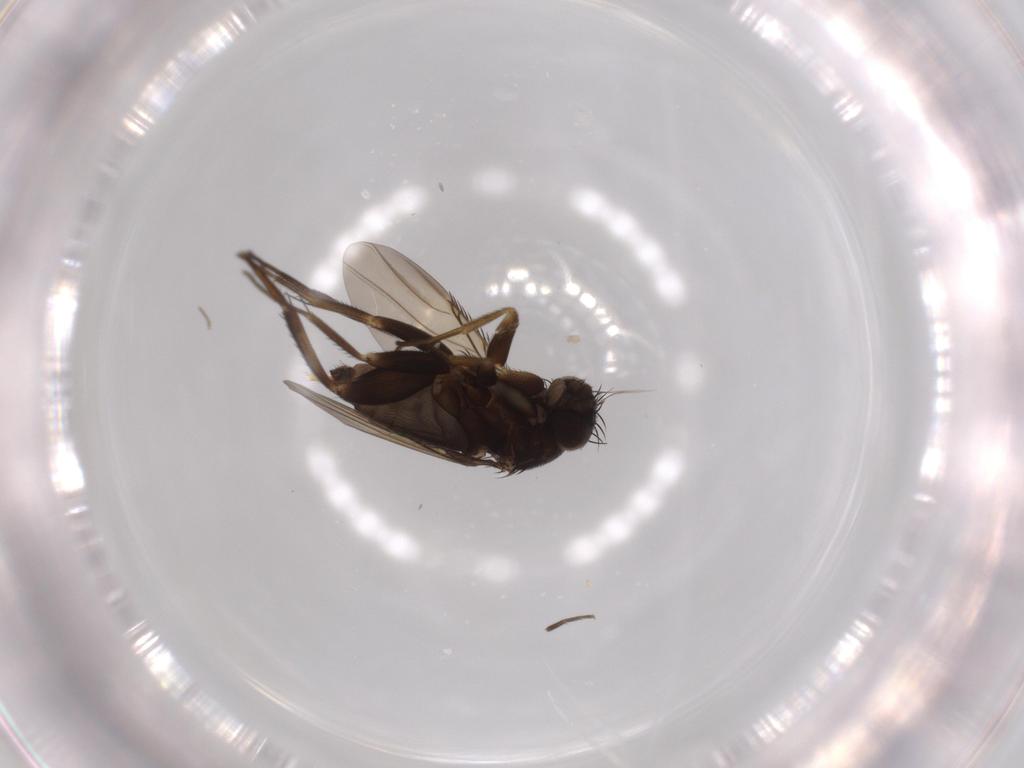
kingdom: Animalia
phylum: Arthropoda
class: Insecta
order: Diptera
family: Phoridae
